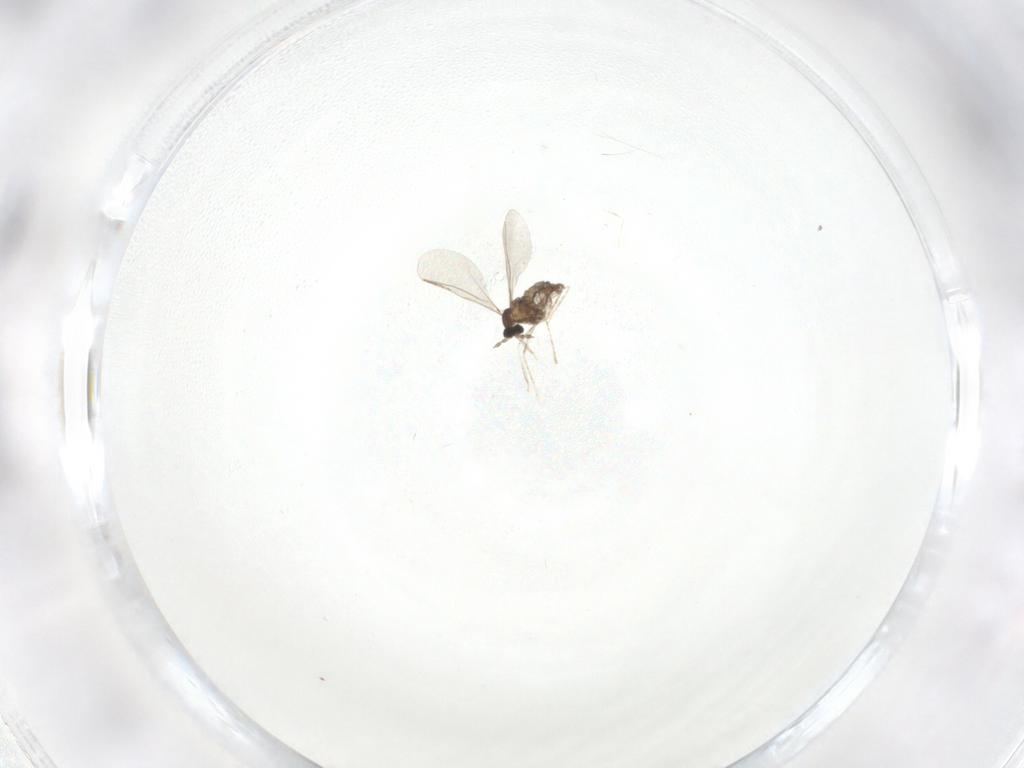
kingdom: Animalia
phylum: Arthropoda
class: Insecta
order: Diptera
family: Cecidomyiidae
